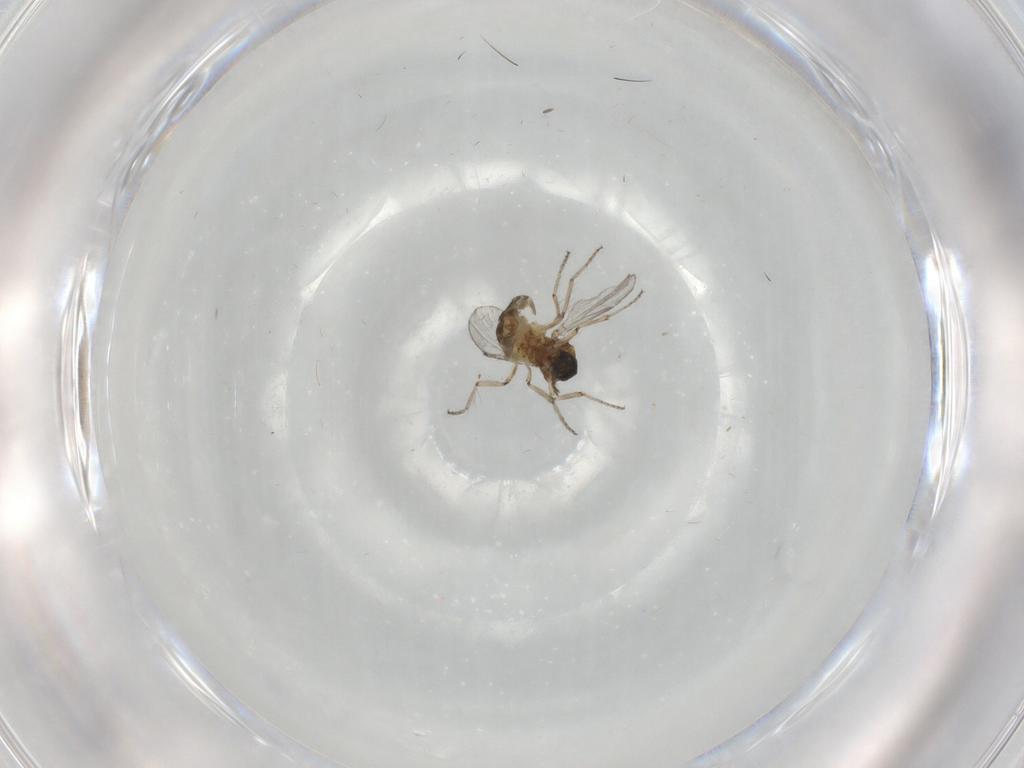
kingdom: Animalia
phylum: Arthropoda
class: Insecta
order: Diptera
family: Ceratopogonidae
